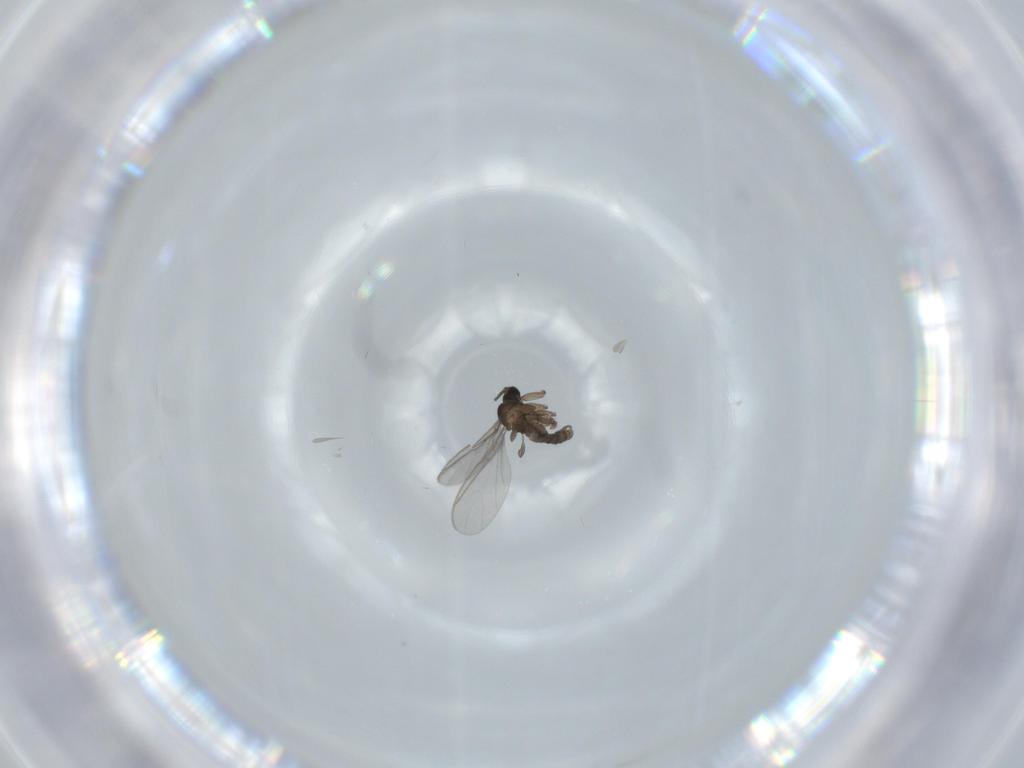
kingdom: Animalia
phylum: Arthropoda
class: Insecta
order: Diptera
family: Sciaridae
